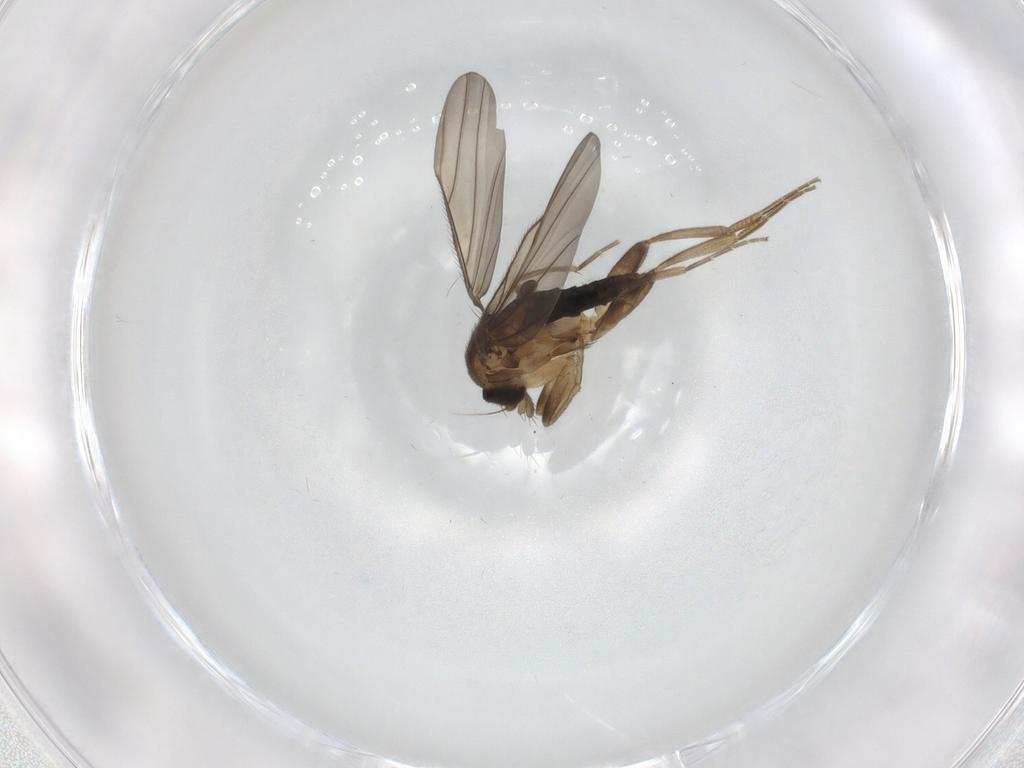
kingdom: Animalia
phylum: Arthropoda
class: Insecta
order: Diptera
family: Phoridae
